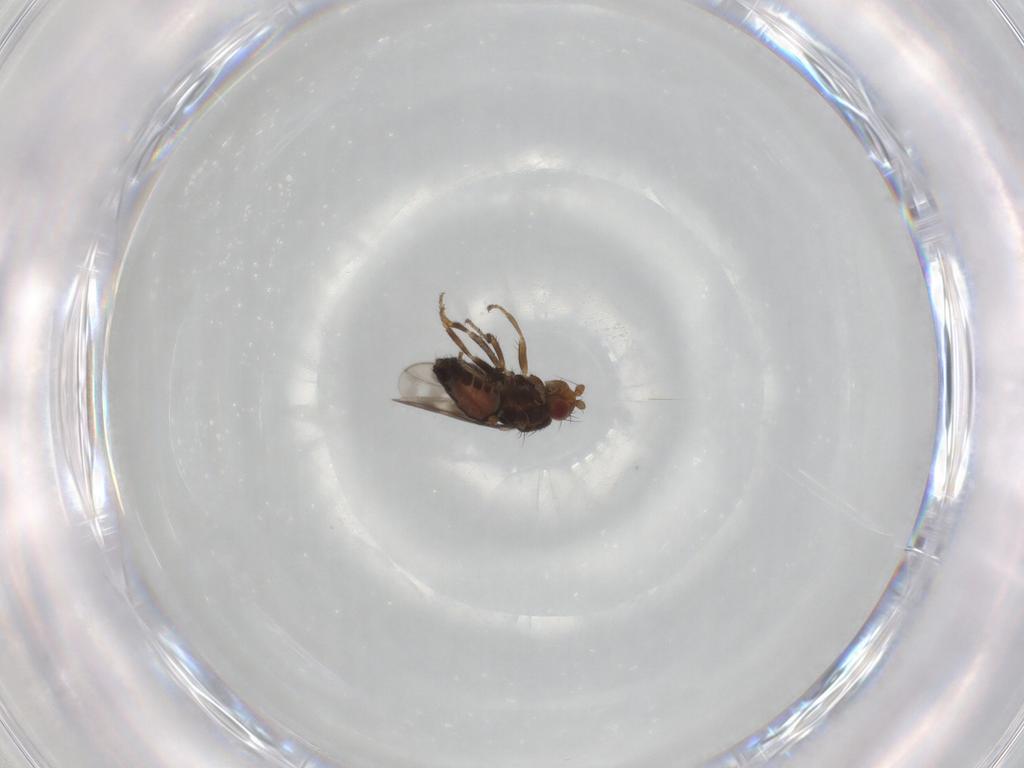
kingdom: Animalia
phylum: Arthropoda
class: Insecta
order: Diptera
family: Sphaeroceridae
